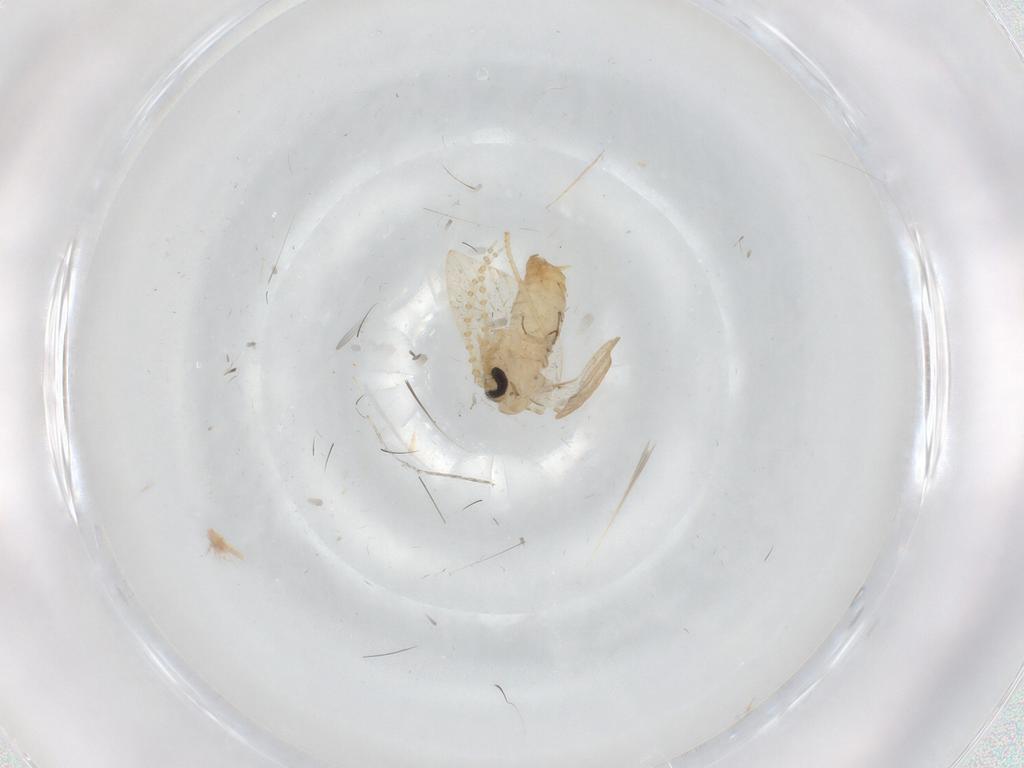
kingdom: Animalia
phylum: Arthropoda
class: Insecta
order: Diptera
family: Psychodidae
